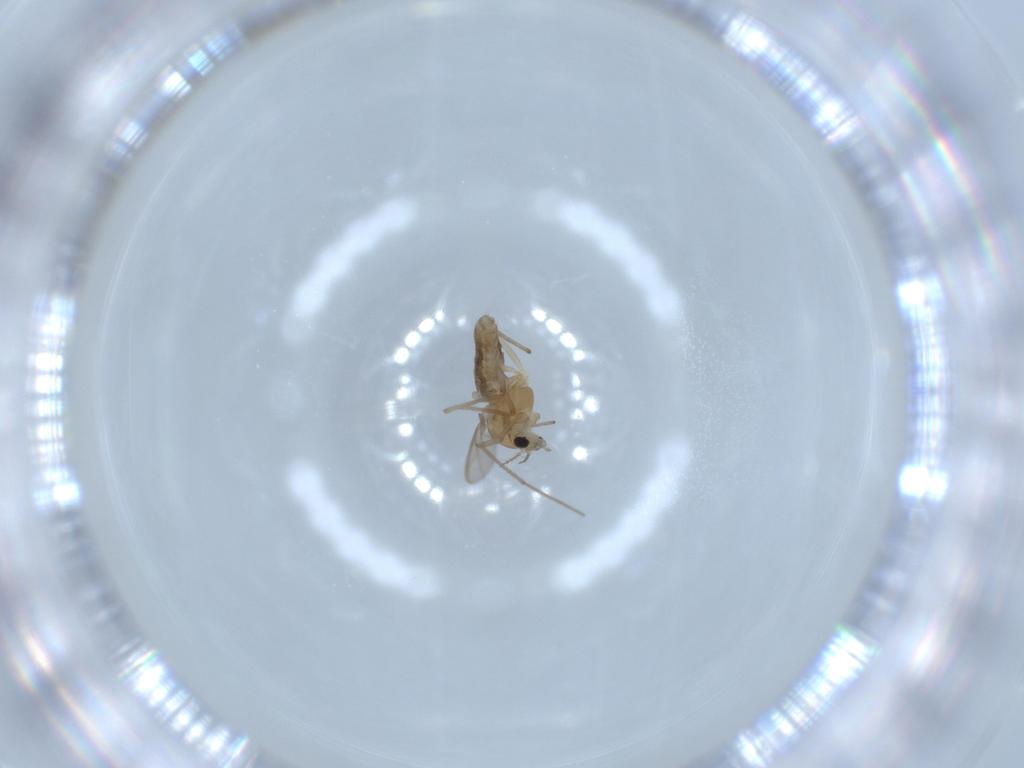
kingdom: Animalia
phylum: Arthropoda
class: Insecta
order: Diptera
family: Chironomidae
